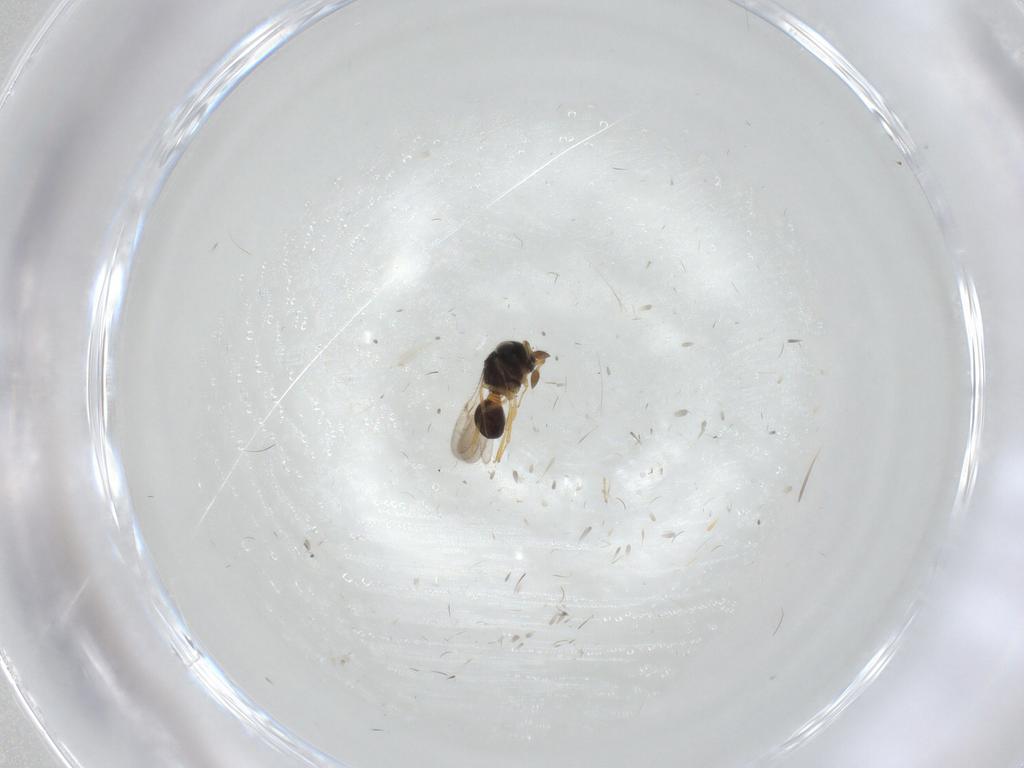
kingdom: Animalia
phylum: Arthropoda
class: Insecta
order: Hymenoptera
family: Scelionidae
